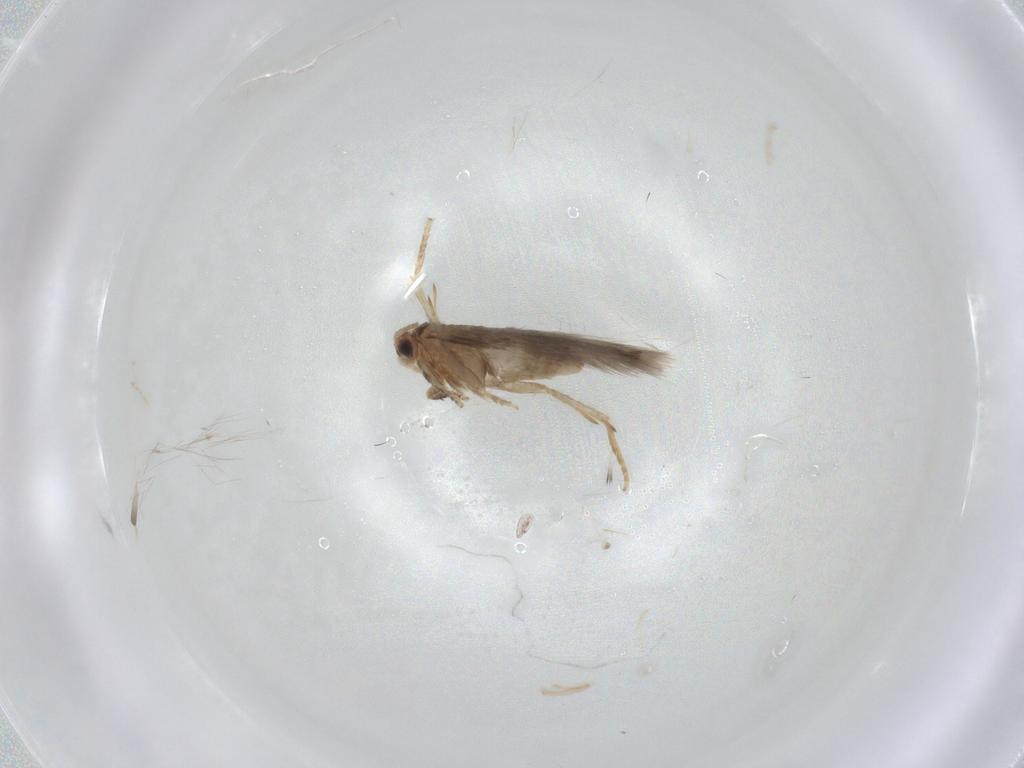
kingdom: Animalia
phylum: Arthropoda
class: Insecta
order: Lepidoptera
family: Nepticulidae
